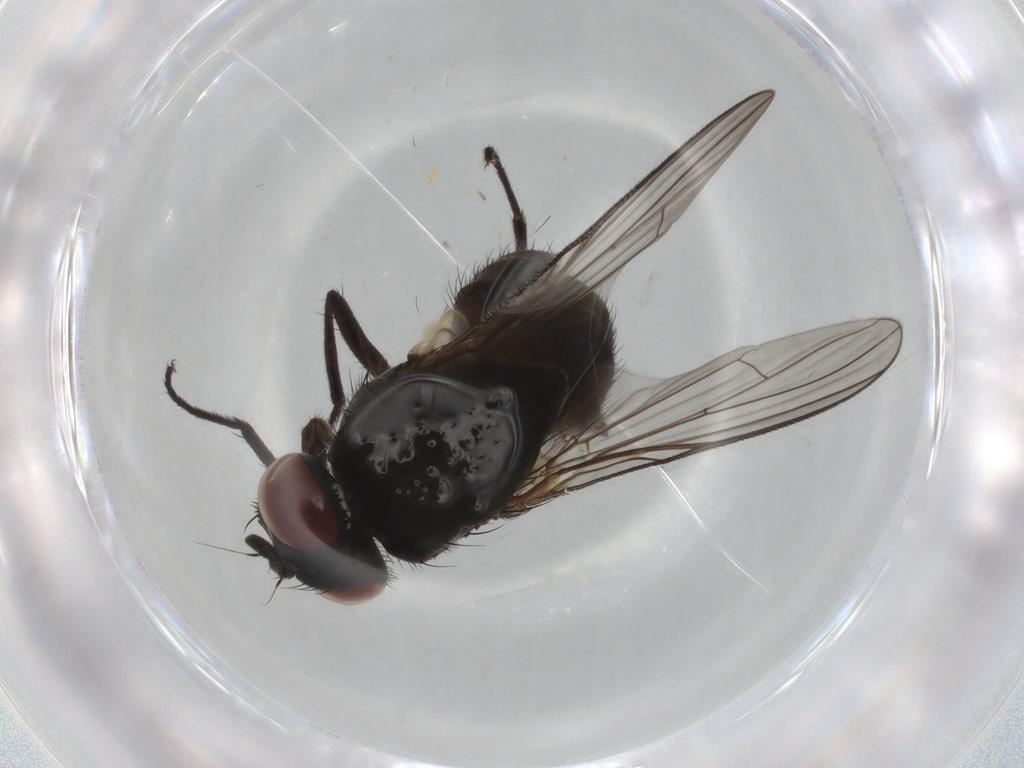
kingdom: Animalia
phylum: Arthropoda
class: Insecta
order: Diptera
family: Muscidae
